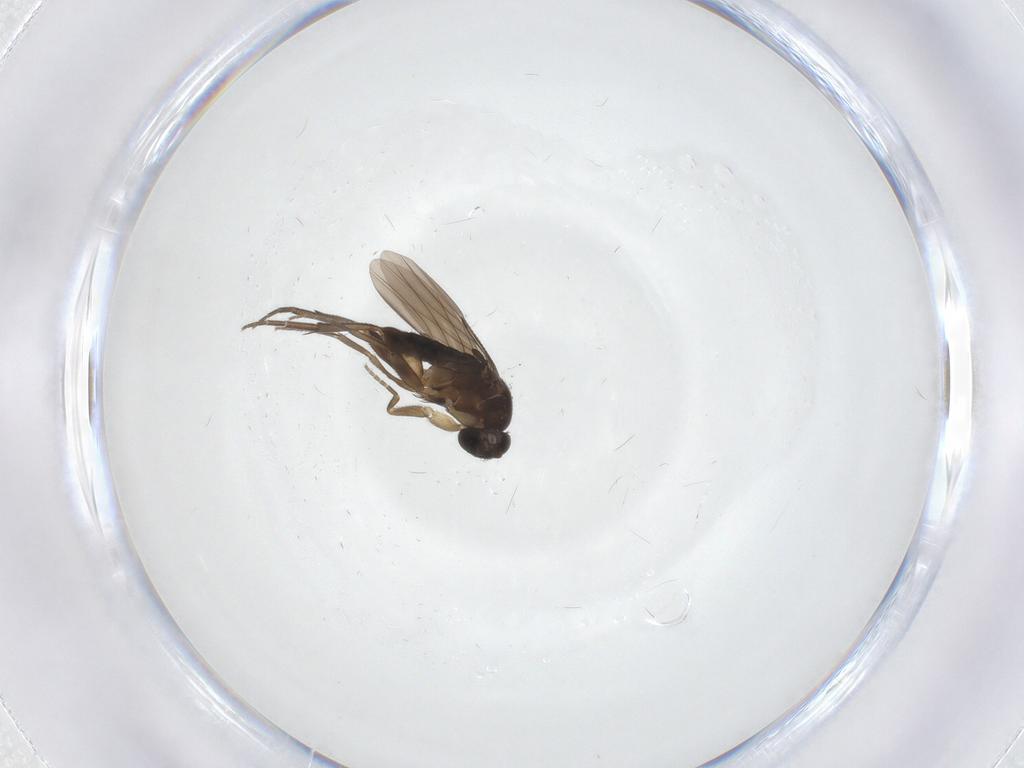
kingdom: Animalia
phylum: Arthropoda
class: Insecta
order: Diptera
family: Phoridae
